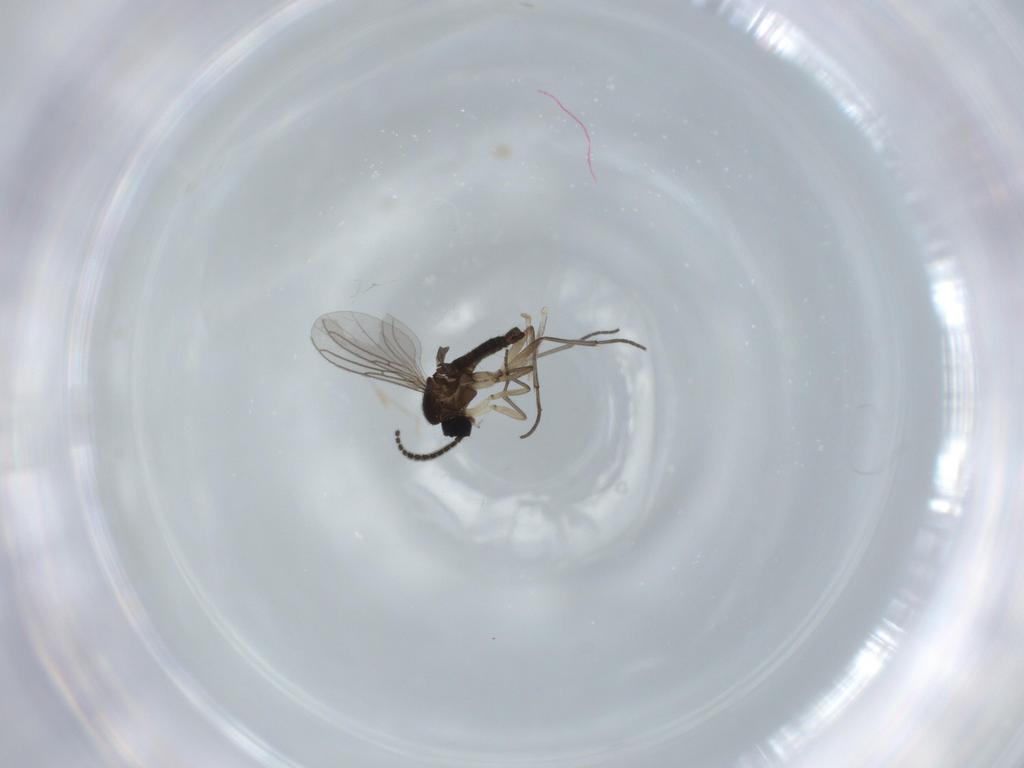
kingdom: Animalia
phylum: Arthropoda
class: Insecta
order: Diptera
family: Sciaridae
